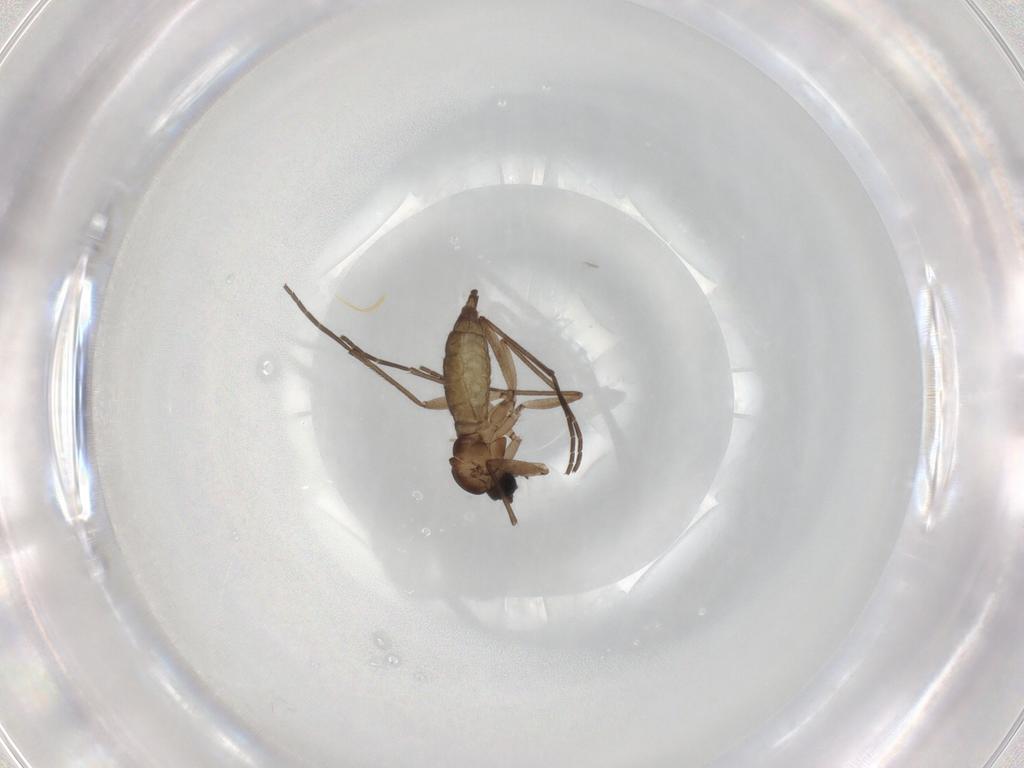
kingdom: Animalia
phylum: Arthropoda
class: Insecta
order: Diptera
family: Sciaridae
